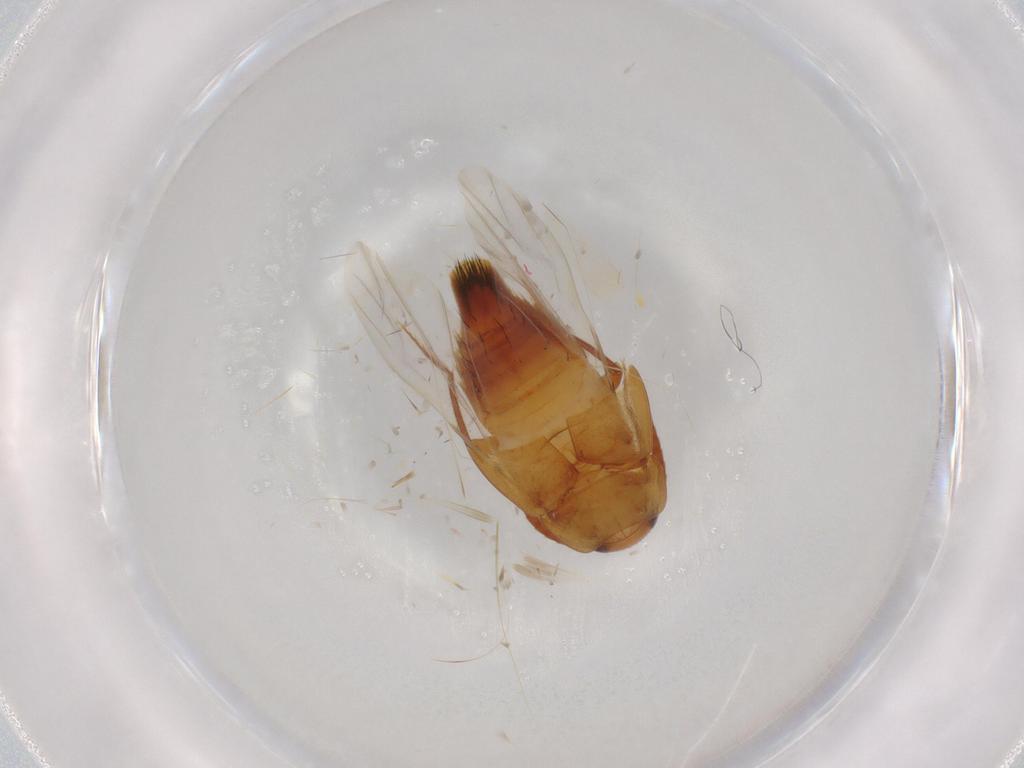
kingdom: Animalia
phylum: Arthropoda
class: Insecta
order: Coleoptera
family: Staphylinidae
